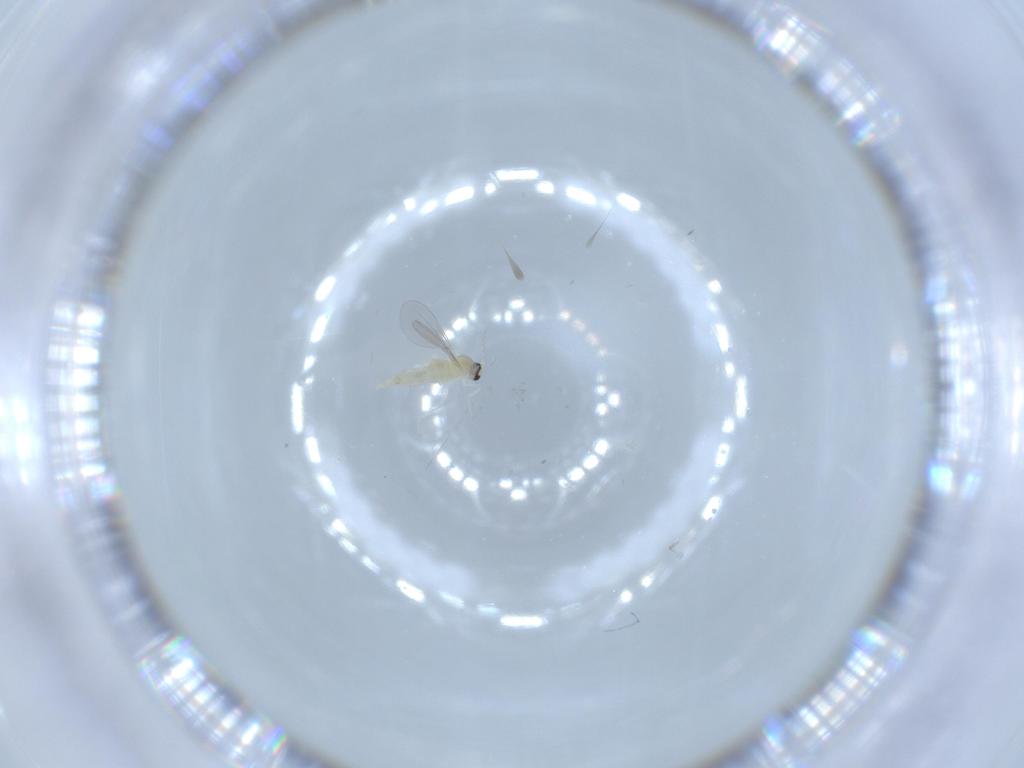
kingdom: Animalia
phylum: Arthropoda
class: Insecta
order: Diptera
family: Cecidomyiidae
